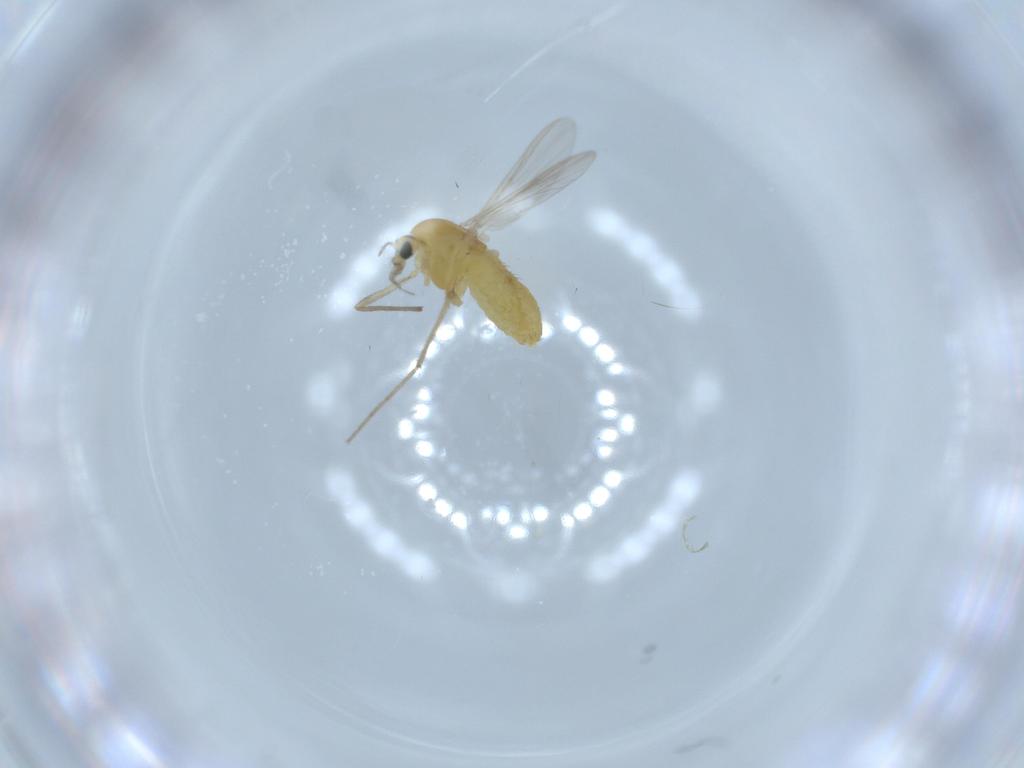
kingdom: Animalia
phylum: Arthropoda
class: Insecta
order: Diptera
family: Chironomidae
